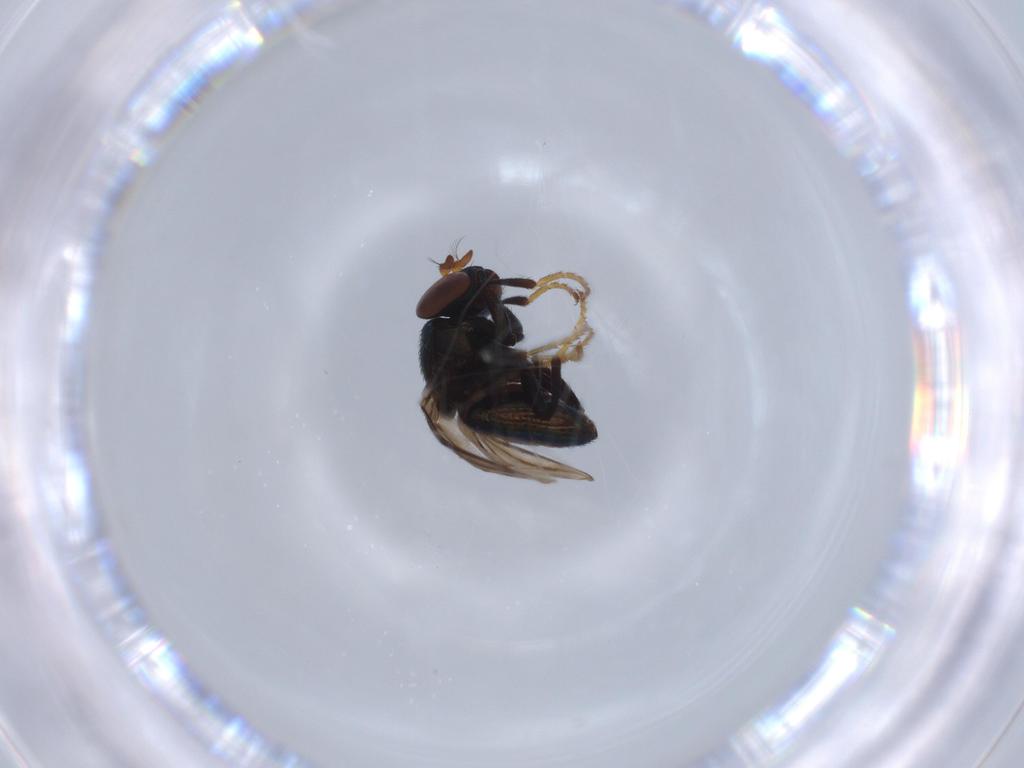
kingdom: Animalia
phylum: Arthropoda
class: Insecta
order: Diptera
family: Ephydridae
